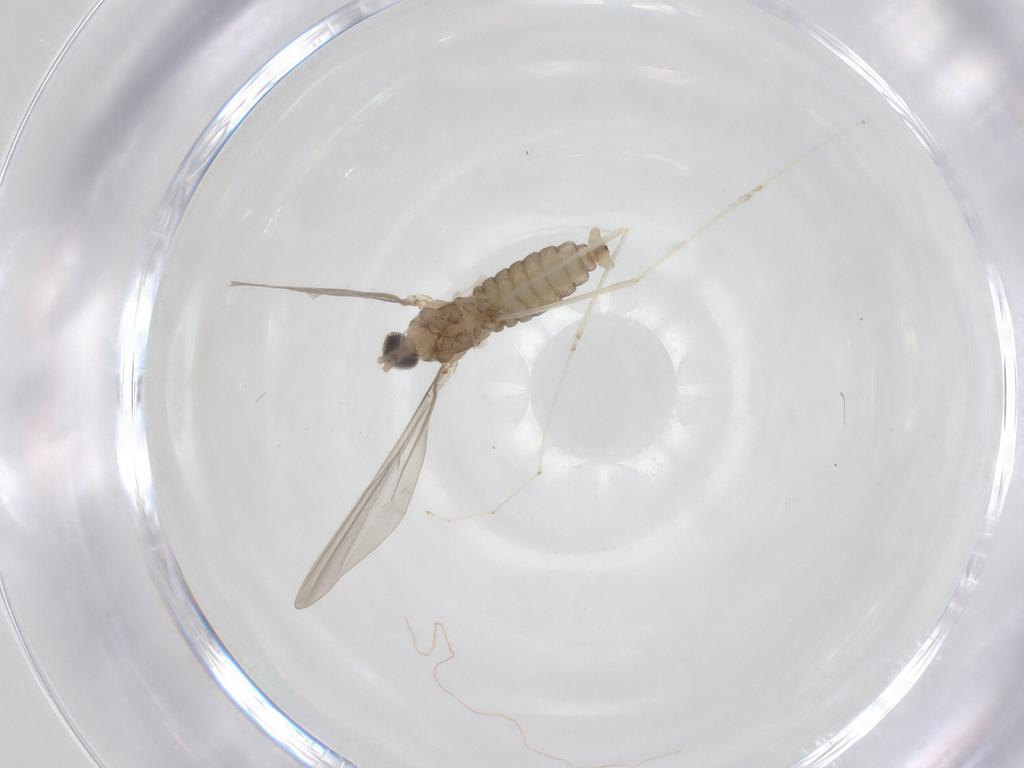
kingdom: Animalia
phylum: Arthropoda
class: Insecta
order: Diptera
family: Cecidomyiidae
